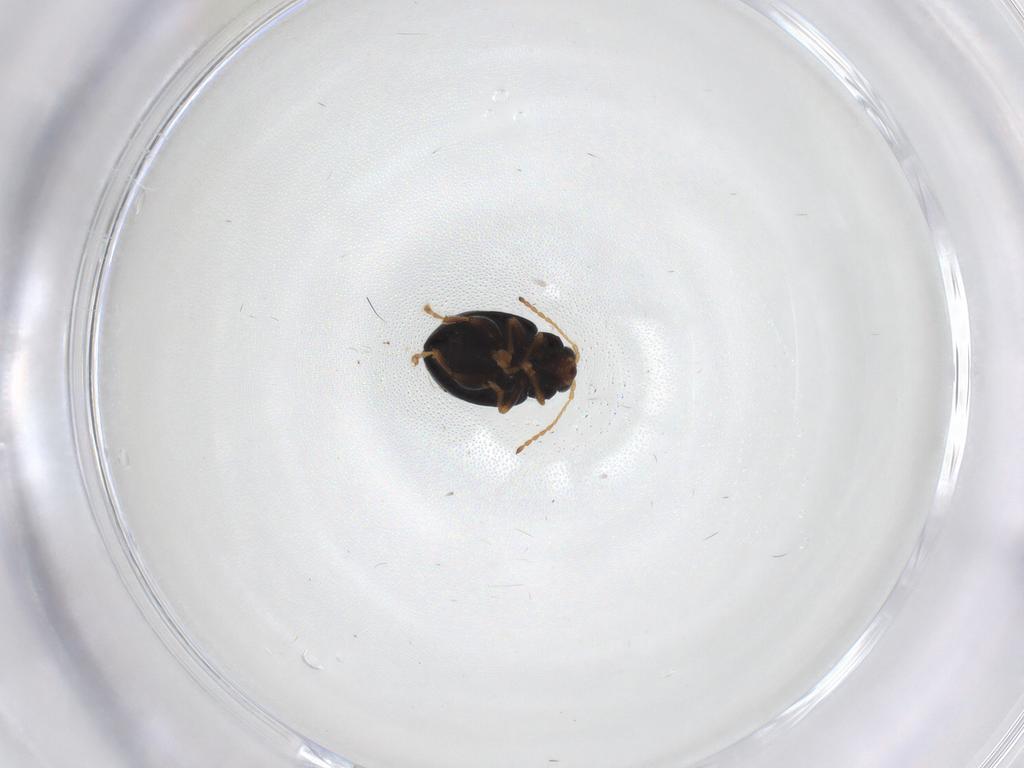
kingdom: Animalia
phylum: Arthropoda
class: Insecta
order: Coleoptera
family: Chrysomelidae
